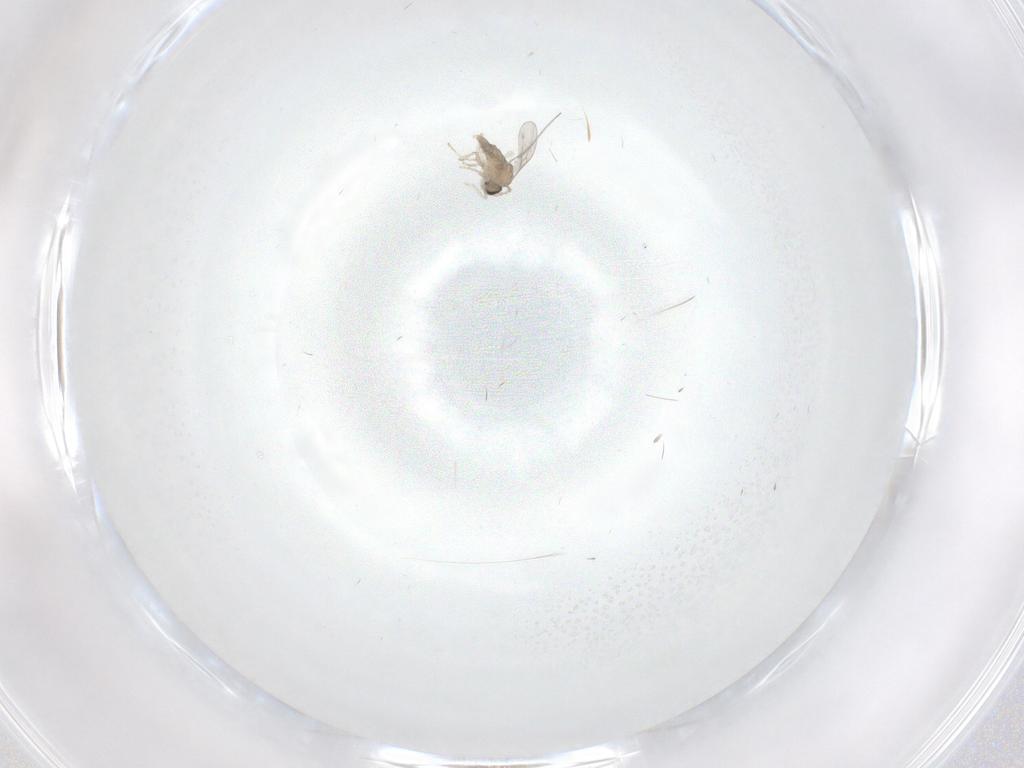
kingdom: Animalia
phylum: Arthropoda
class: Insecta
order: Diptera
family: Cecidomyiidae
